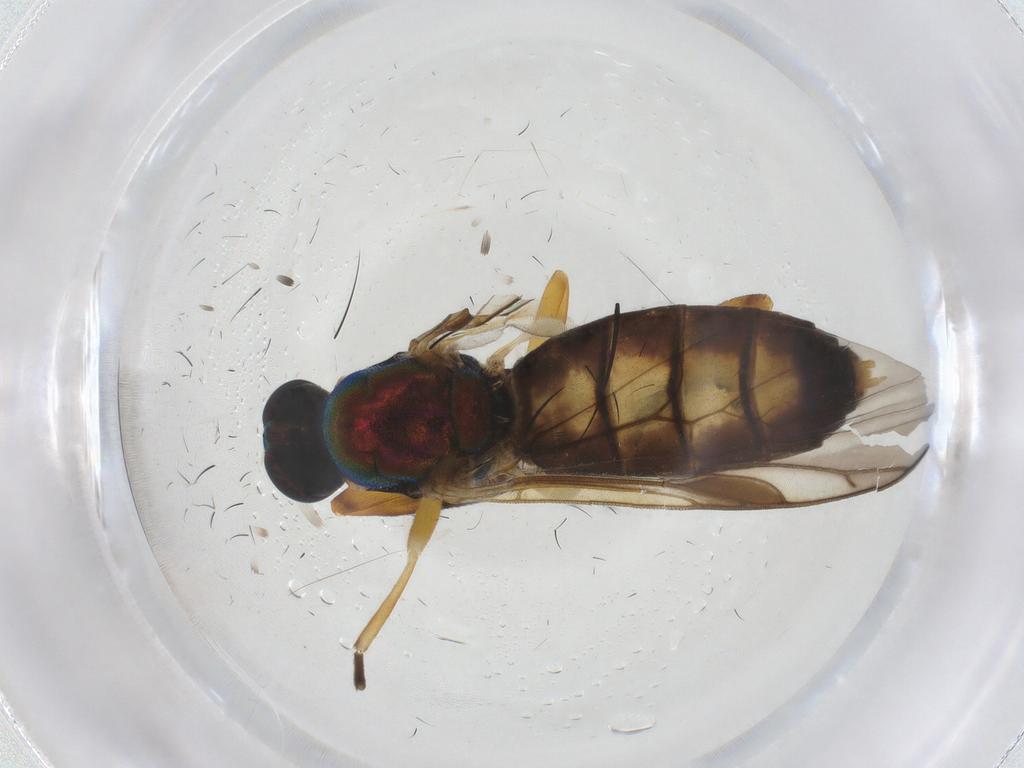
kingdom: Animalia
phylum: Arthropoda
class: Insecta
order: Diptera
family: Stratiomyidae
